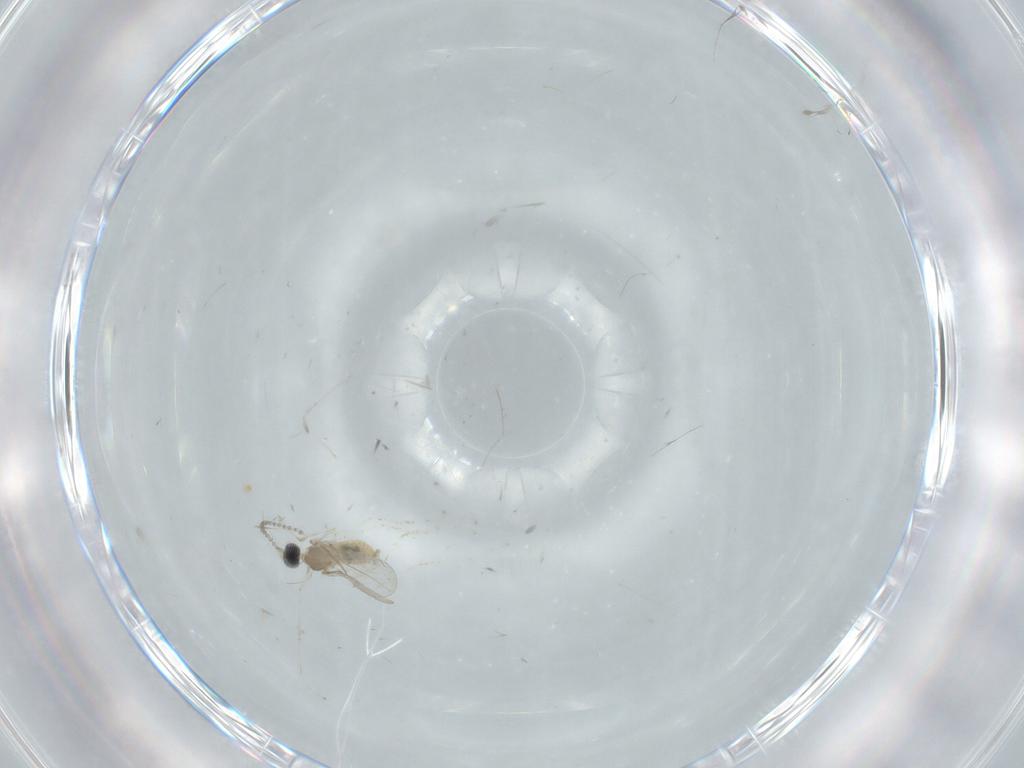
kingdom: Animalia
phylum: Arthropoda
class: Insecta
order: Diptera
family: Cecidomyiidae
